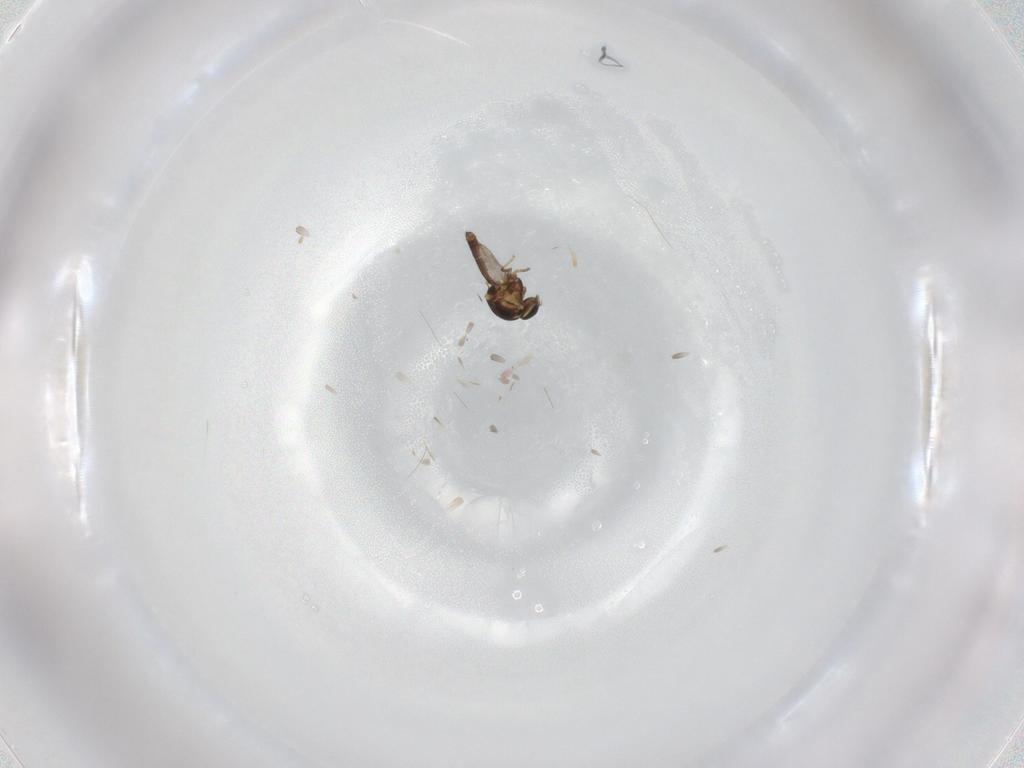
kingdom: Animalia
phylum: Arthropoda
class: Insecta
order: Diptera
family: Ceratopogonidae
